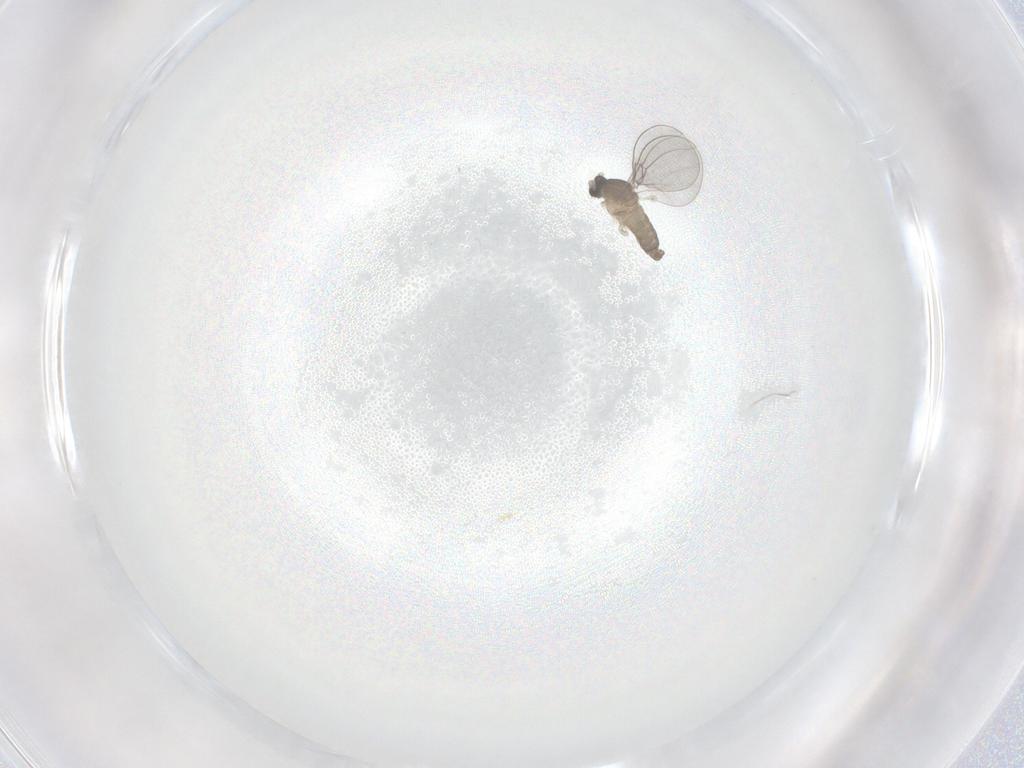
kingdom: Animalia
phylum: Arthropoda
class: Insecta
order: Diptera
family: Cecidomyiidae
